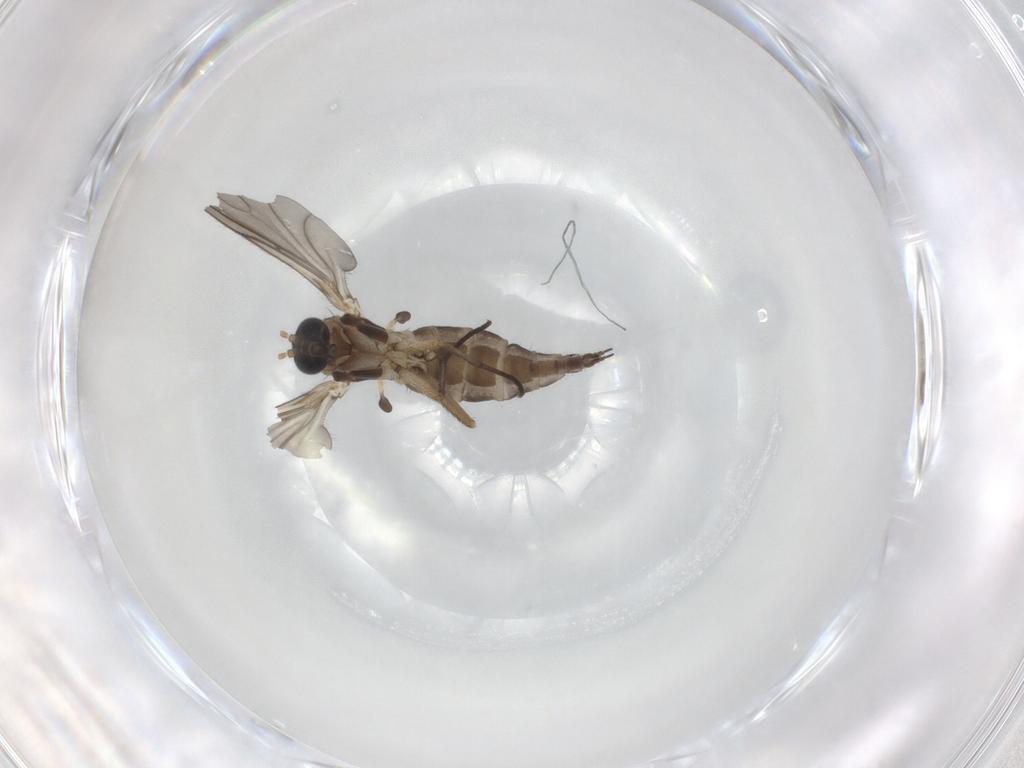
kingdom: Animalia
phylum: Arthropoda
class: Insecta
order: Diptera
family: Sciaridae
